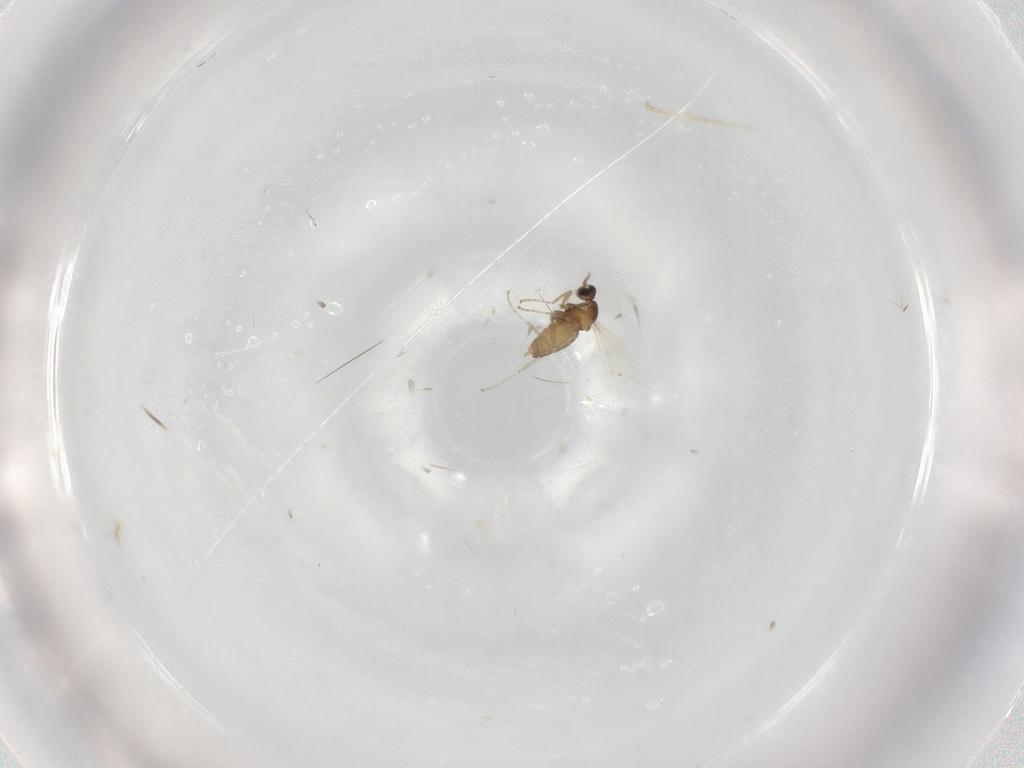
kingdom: Animalia
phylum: Arthropoda
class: Insecta
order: Diptera
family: Cecidomyiidae
